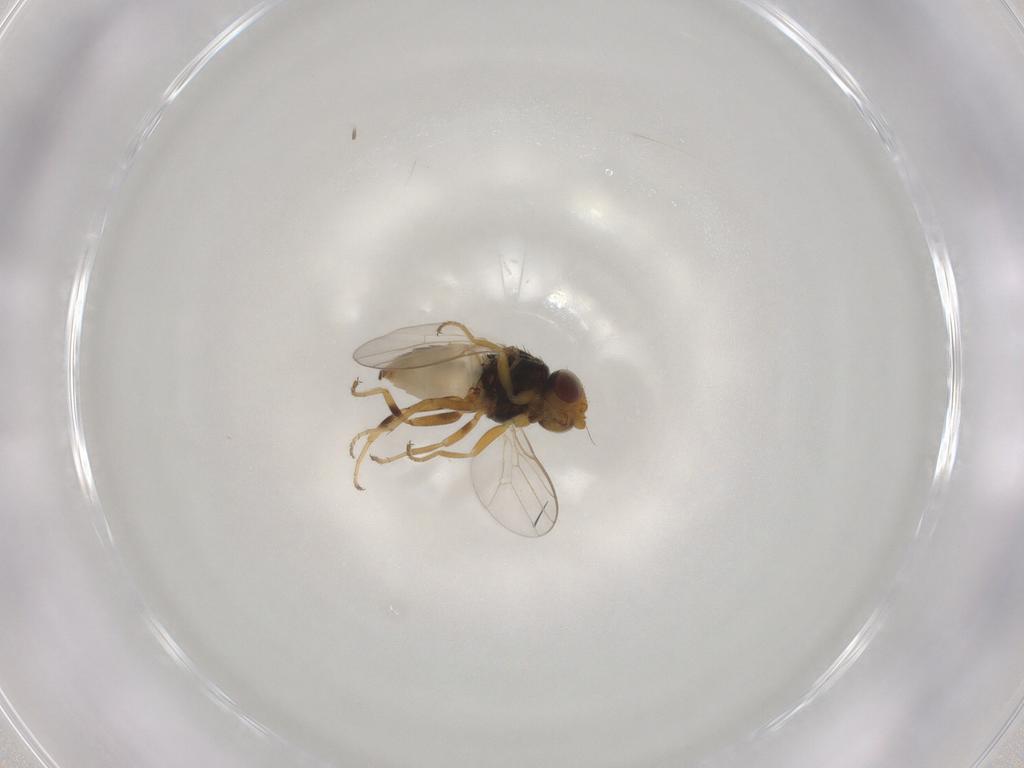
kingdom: Animalia
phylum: Arthropoda
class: Insecta
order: Diptera
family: Chloropidae
